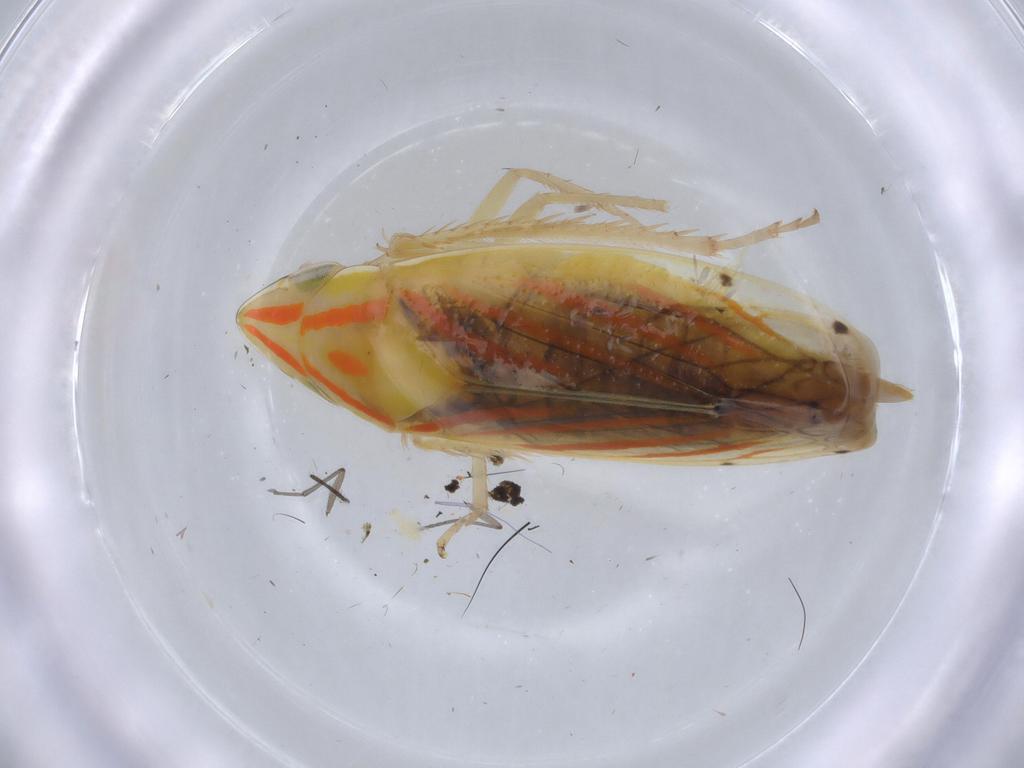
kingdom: Animalia
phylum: Arthropoda
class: Insecta
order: Hemiptera
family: Cicadellidae
